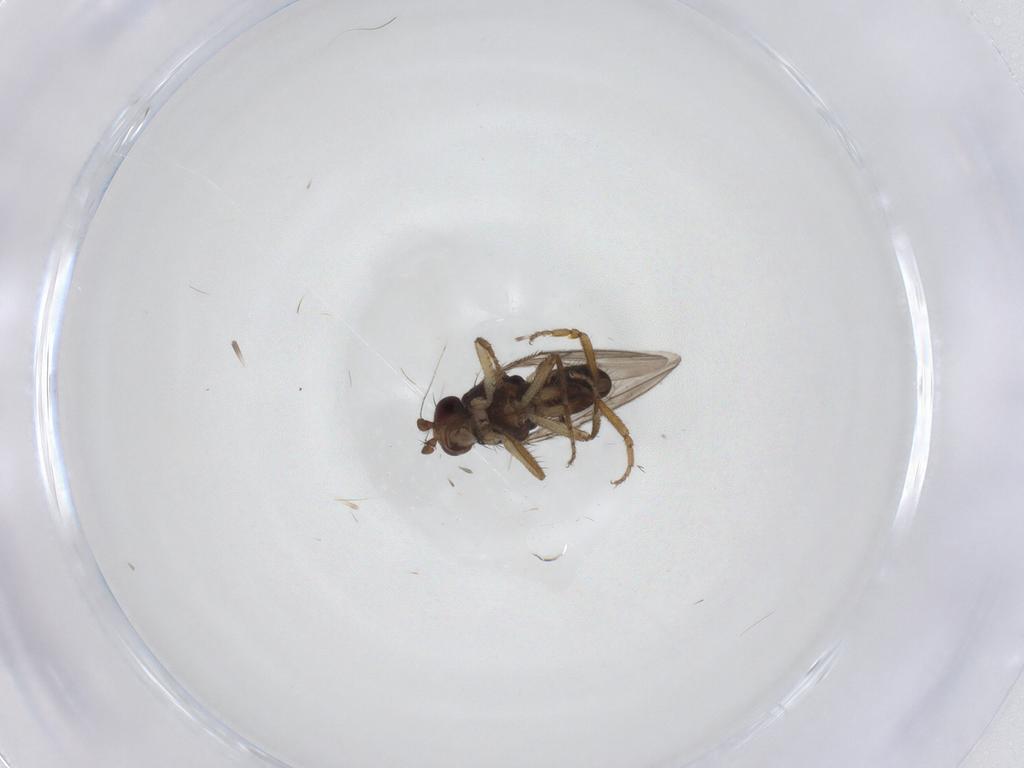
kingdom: Animalia
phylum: Arthropoda
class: Insecta
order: Diptera
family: Sphaeroceridae
